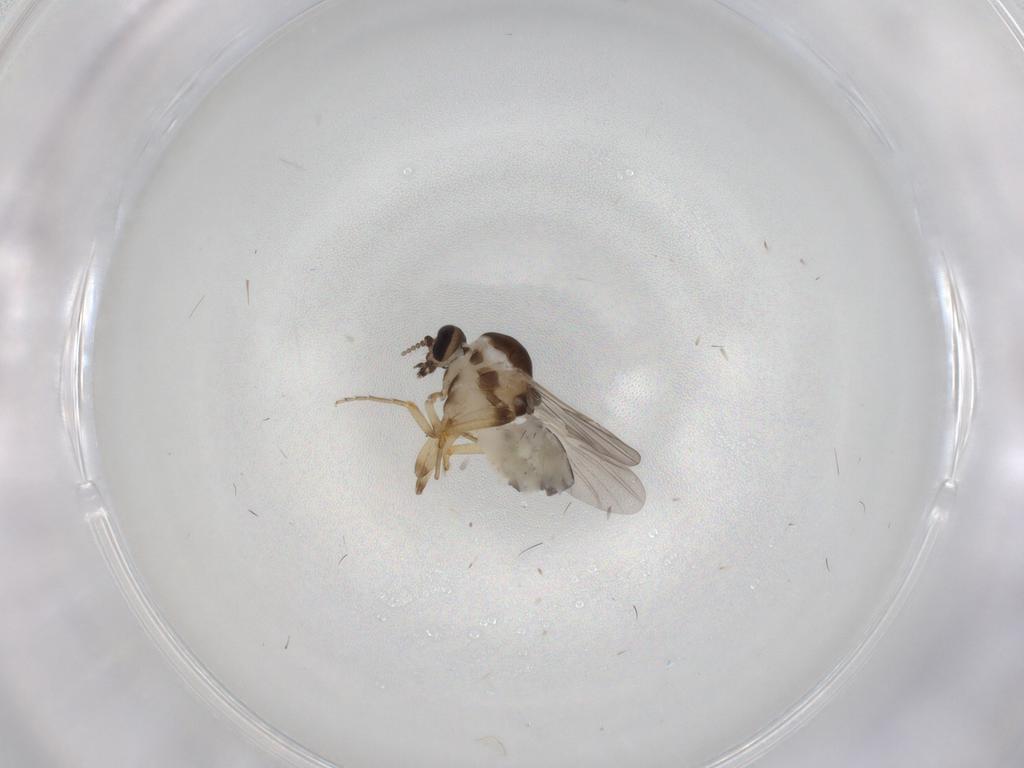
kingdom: Animalia
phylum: Arthropoda
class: Insecta
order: Diptera
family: Ceratopogonidae
